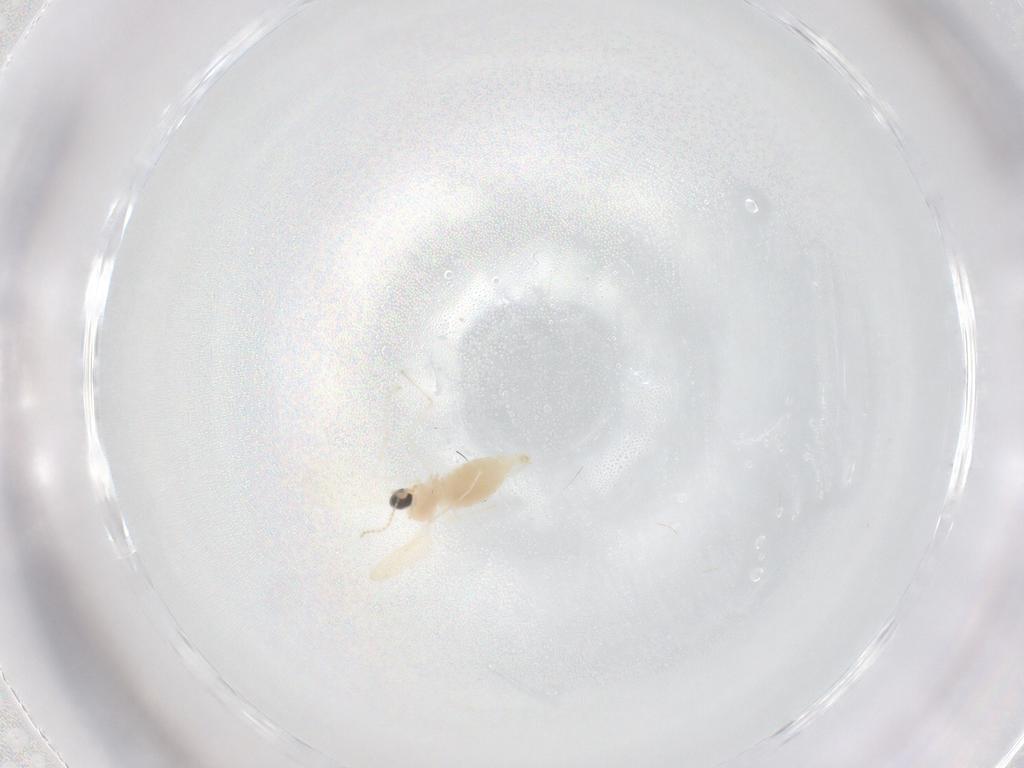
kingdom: Animalia
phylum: Arthropoda
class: Insecta
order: Diptera
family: Cecidomyiidae
